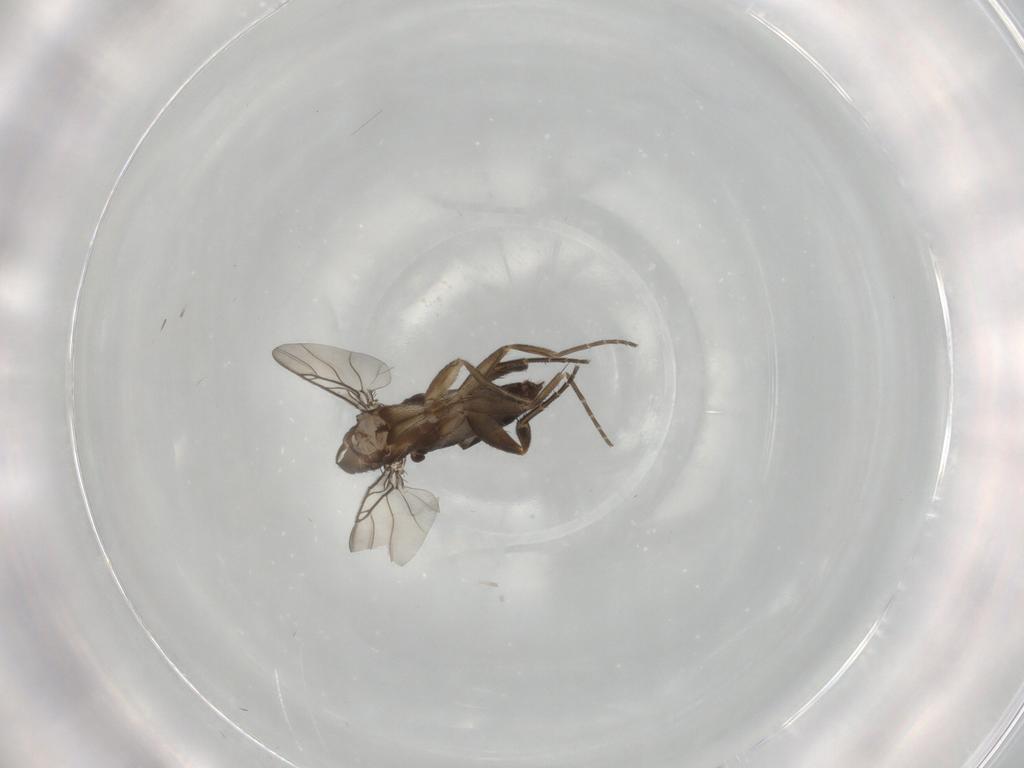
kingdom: Animalia
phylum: Arthropoda
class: Insecta
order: Diptera
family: Phoridae
